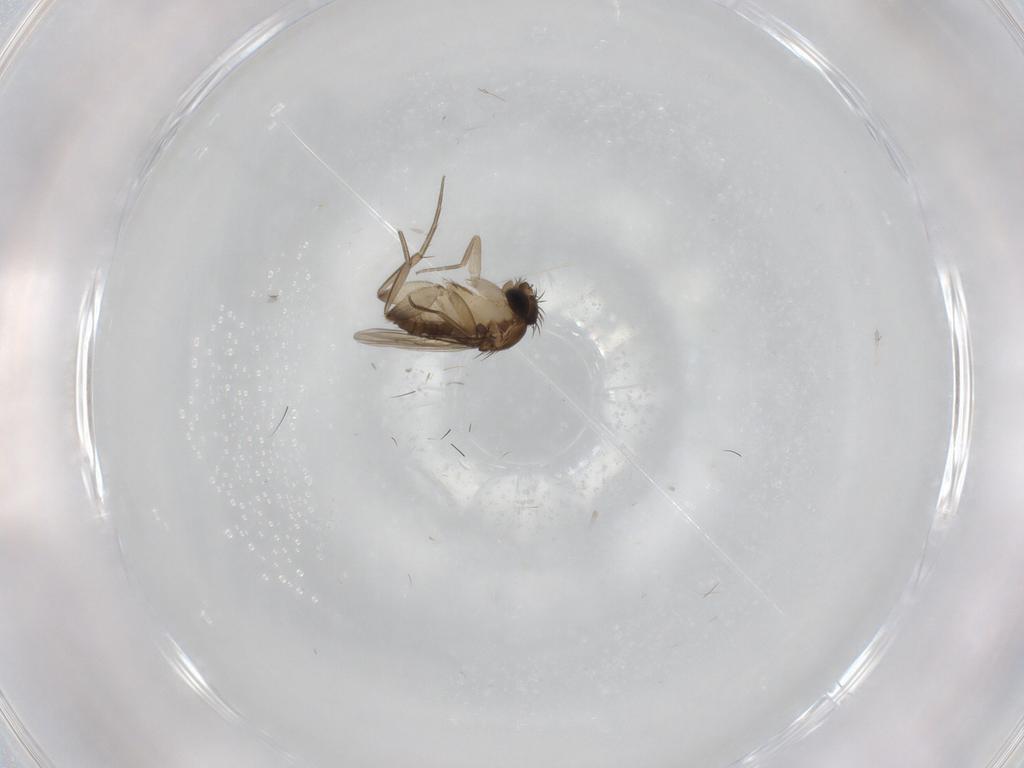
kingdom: Animalia
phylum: Arthropoda
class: Insecta
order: Diptera
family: Phoridae
